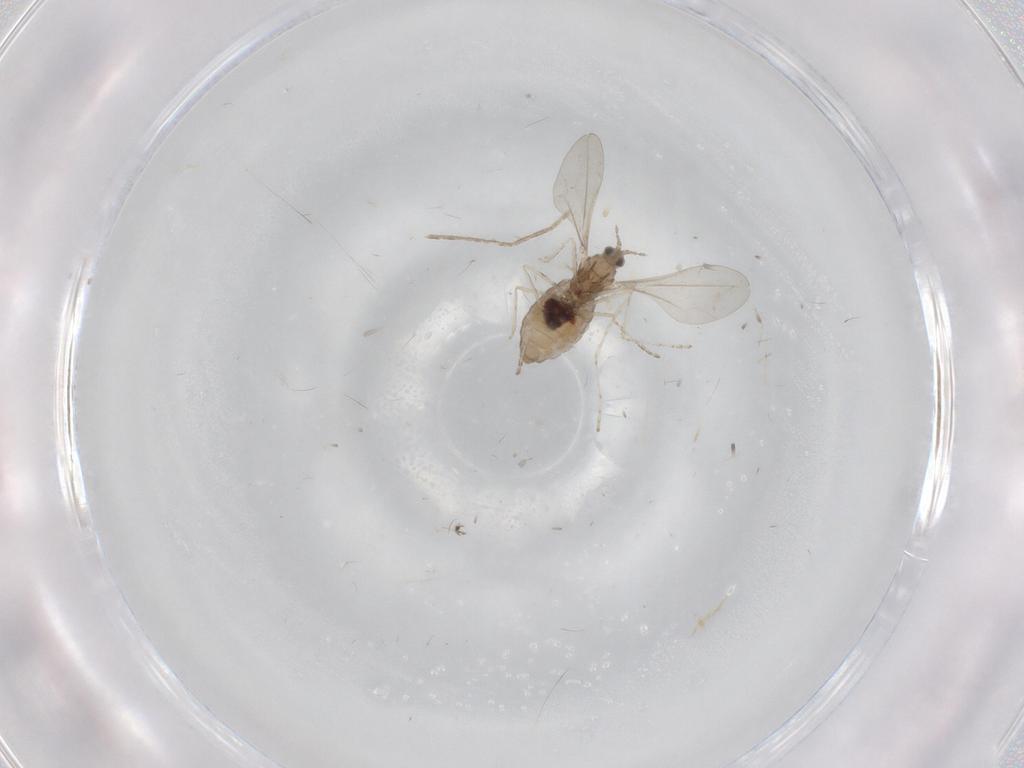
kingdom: Animalia
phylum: Arthropoda
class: Insecta
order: Diptera
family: Cecidomyiidae
